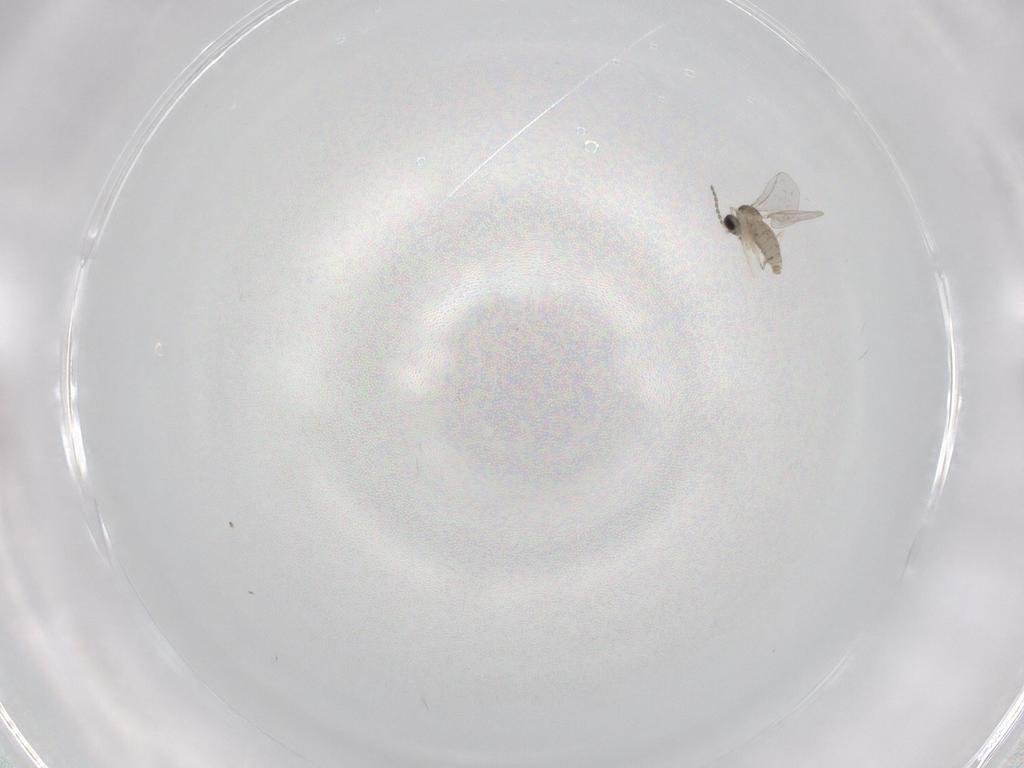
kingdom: Animalia
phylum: Arthropoda
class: Insecta
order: Diptera
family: Cecidomyiidae
